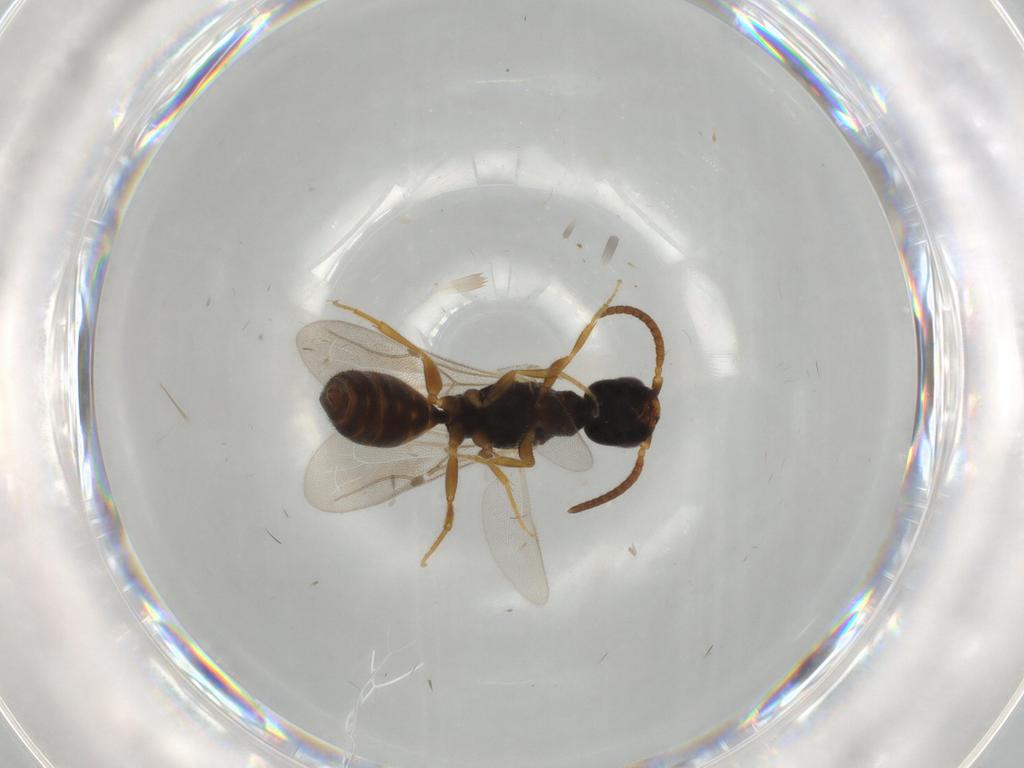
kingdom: Animalia
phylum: Arthropoda
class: Insecta
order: Hymenoptera
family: Bethylidae
